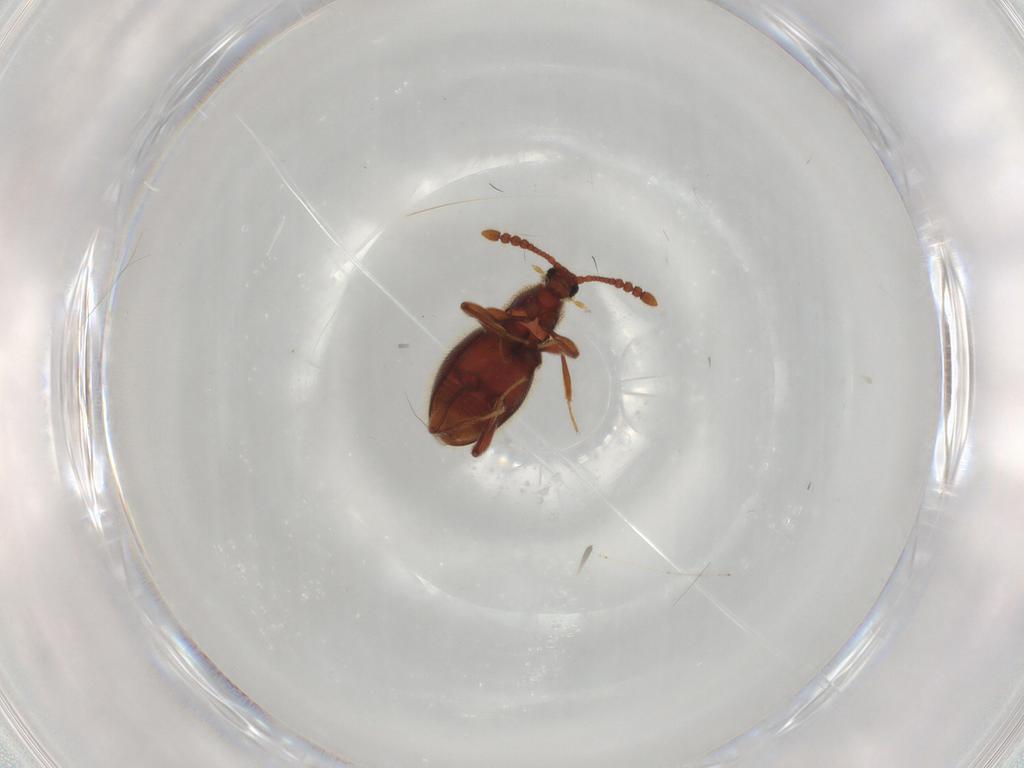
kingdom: Animalia
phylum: Arthropoda
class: Insecta
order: Coleoptera
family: Staphylinidae
